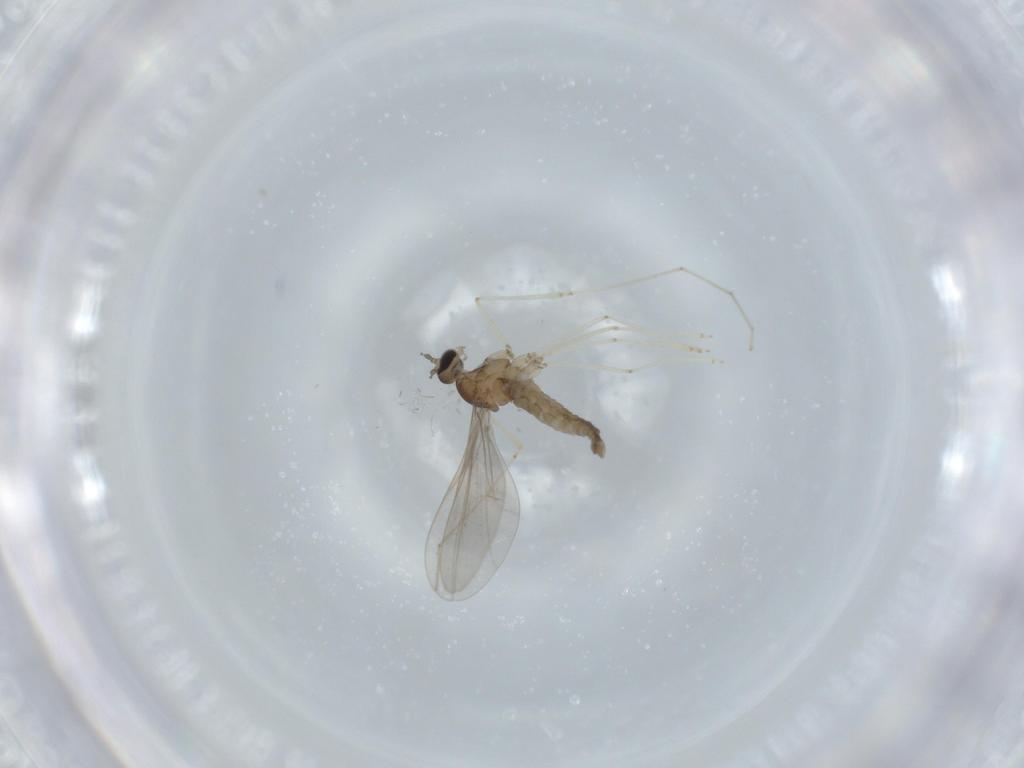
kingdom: Animalia
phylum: Arthropoda
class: Insecta
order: Diptera
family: Cecidomyiidae
